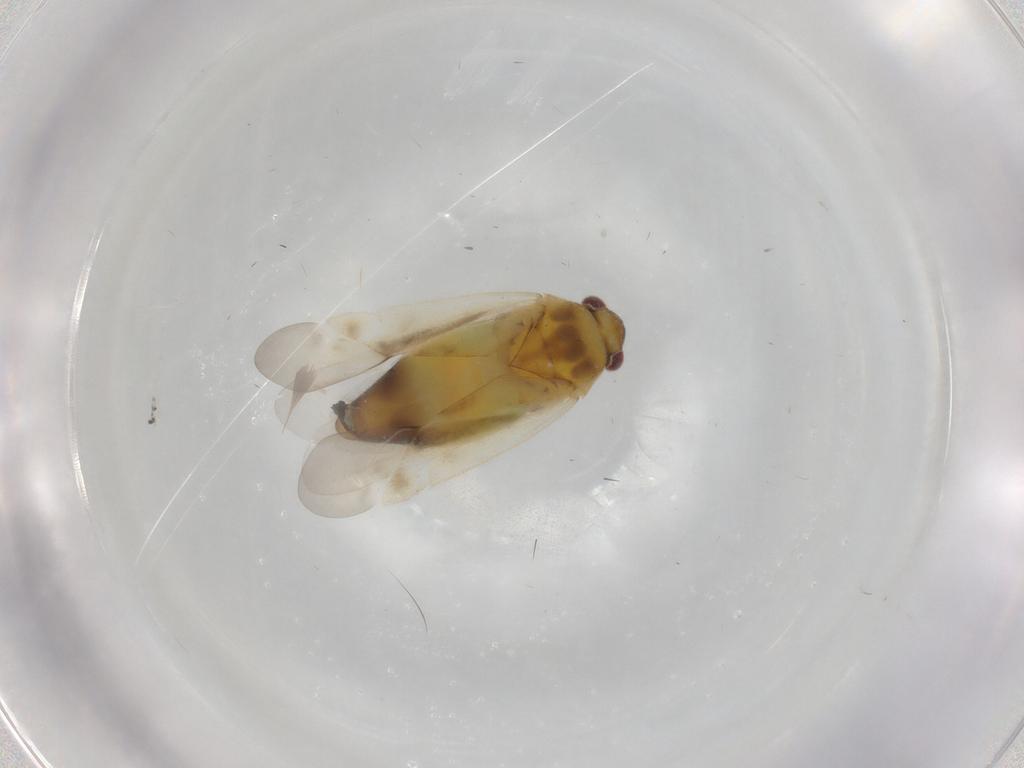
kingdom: Animalia
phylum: Arthropoda
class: Insecta
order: Hemiptera
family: Miridae
